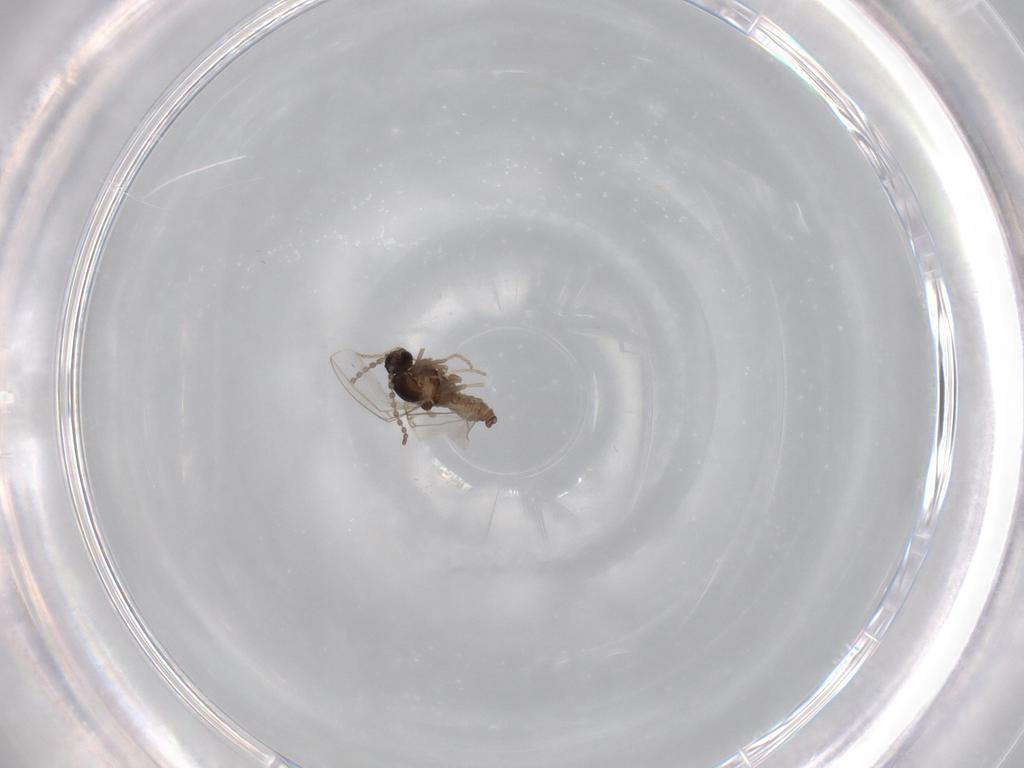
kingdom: Animalia
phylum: Arthropoda
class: Insecta
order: Diptera
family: Cecidomyiidae
